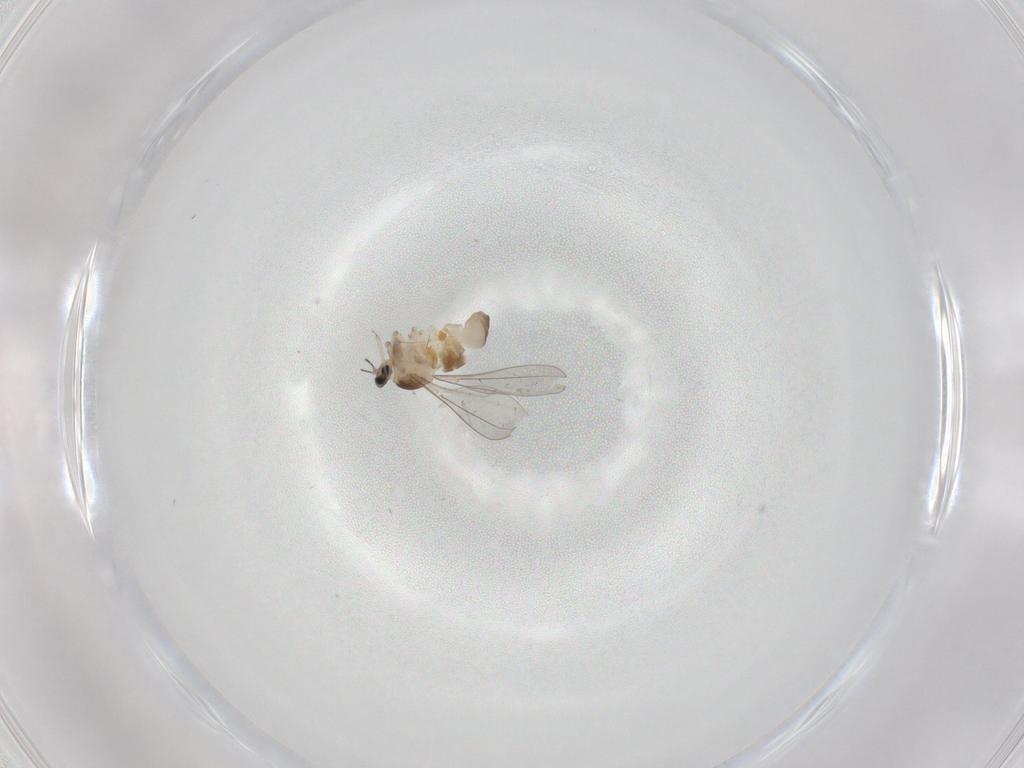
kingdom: Animalia
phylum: Arthropoda
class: Insecta
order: Diptera
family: Cecidomyiidae
